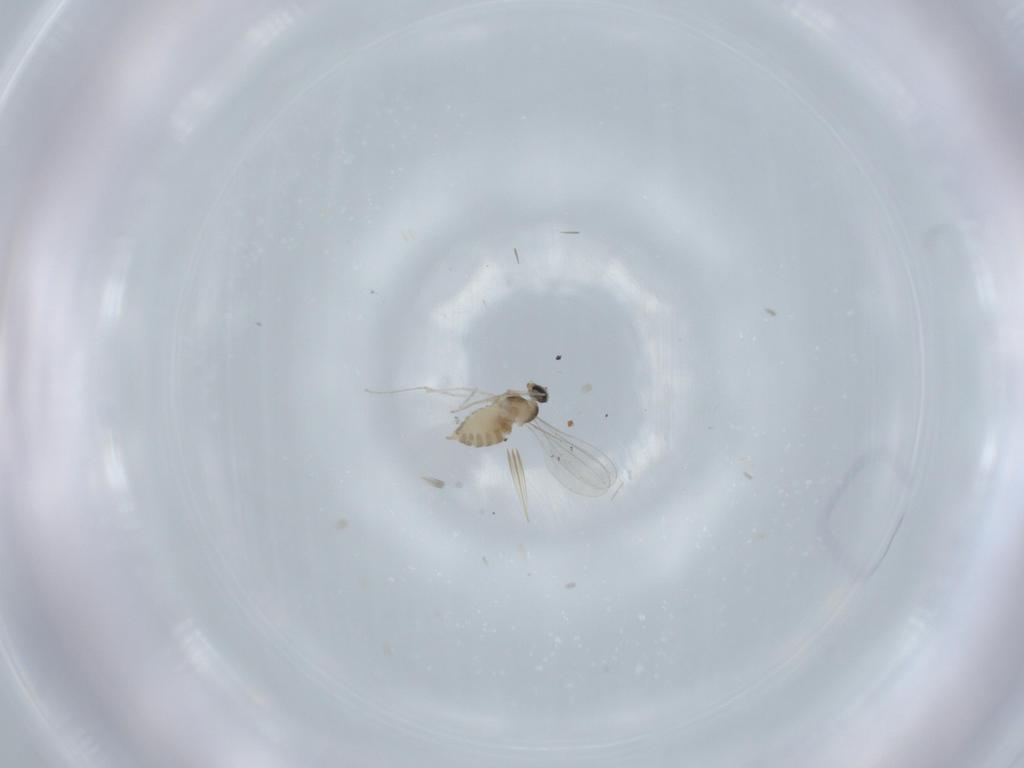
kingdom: Animalia
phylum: Arthropoda
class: Insecta
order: Diptera
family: Cecidomyiidae
